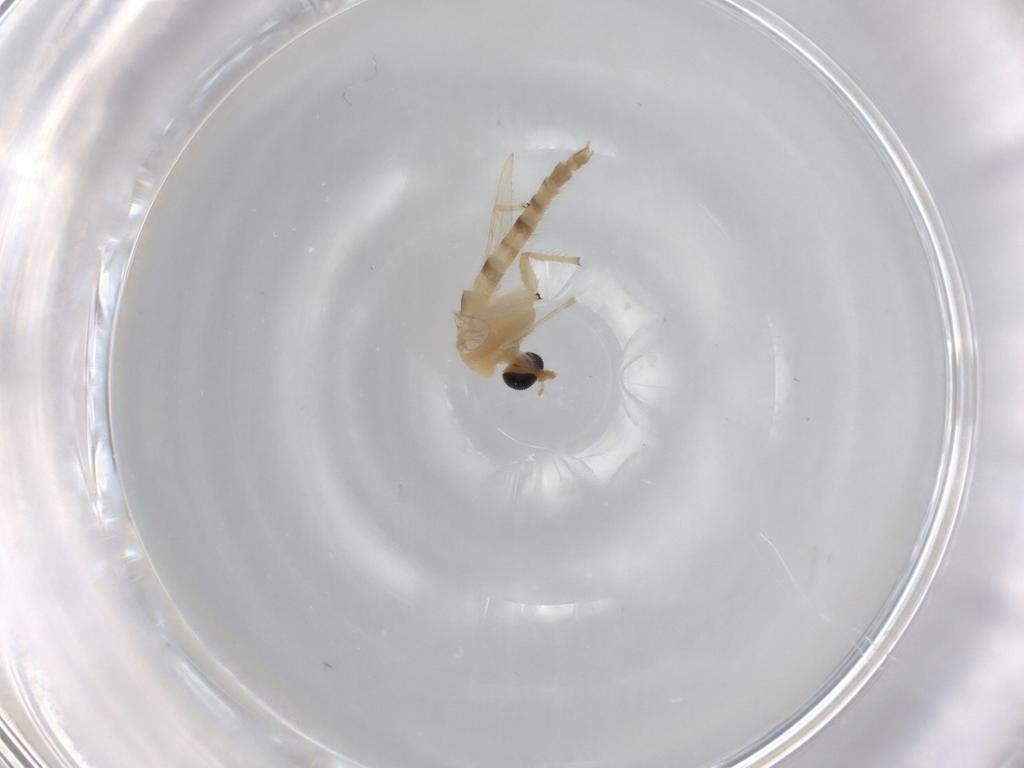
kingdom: Animalia
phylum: Arthropoda
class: Insecta
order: Diptera
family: Chironomidae
